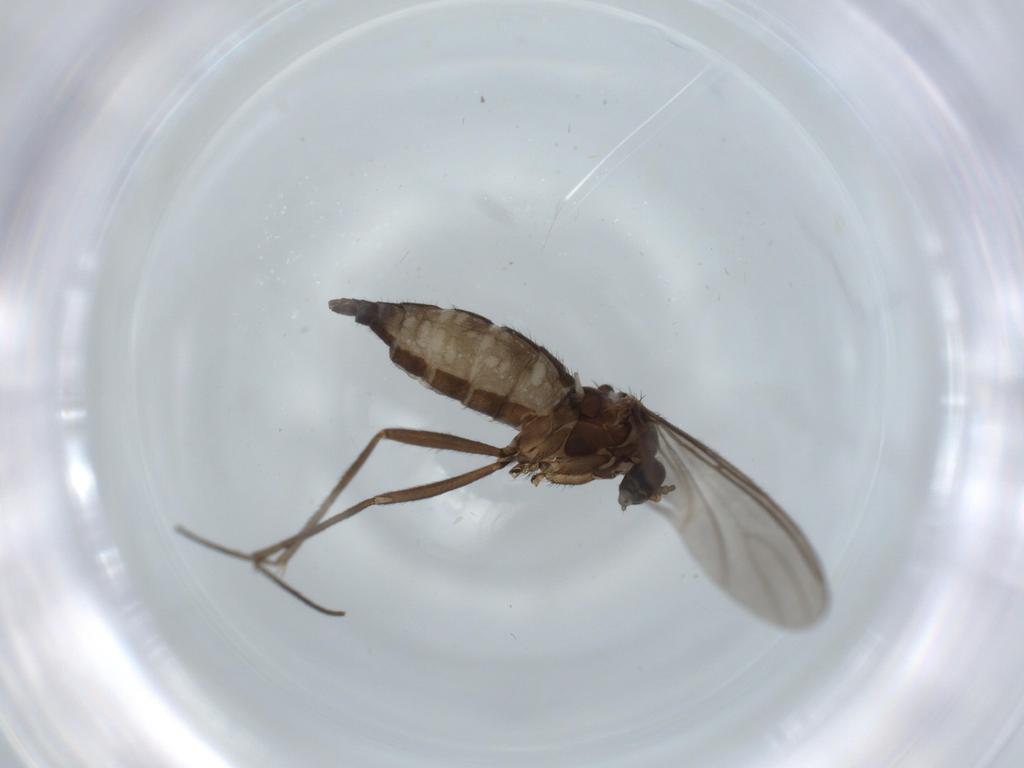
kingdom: Animalia
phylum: Arthropoda
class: Insecta
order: Diptera
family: Sciaridae
